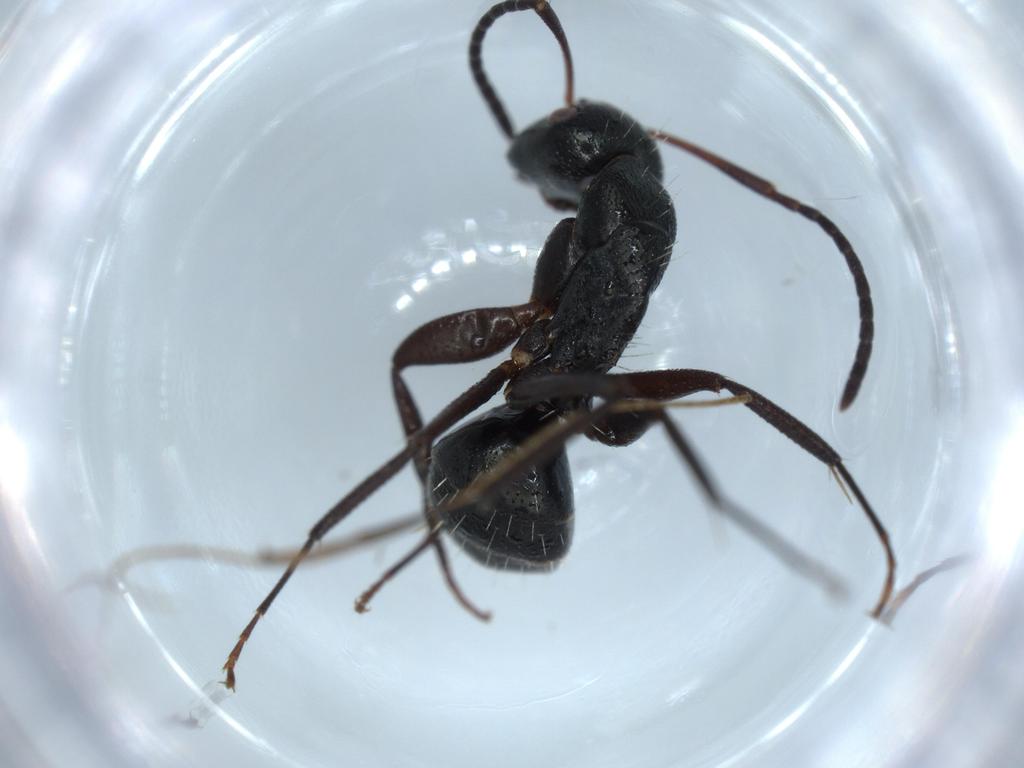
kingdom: Animalia
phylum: Arthropoda
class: Insecta
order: Hymenoptera
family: Formicidae
